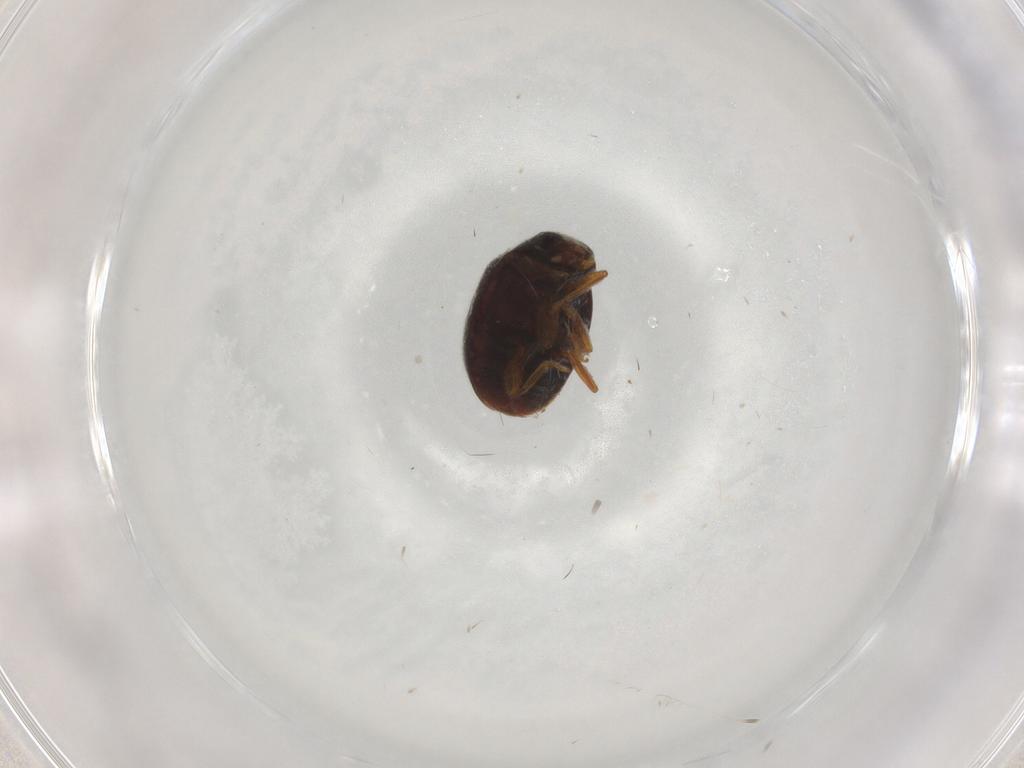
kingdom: Animalia
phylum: Arthropoda
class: Insecta
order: Coleoptera
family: Coccinellidae
